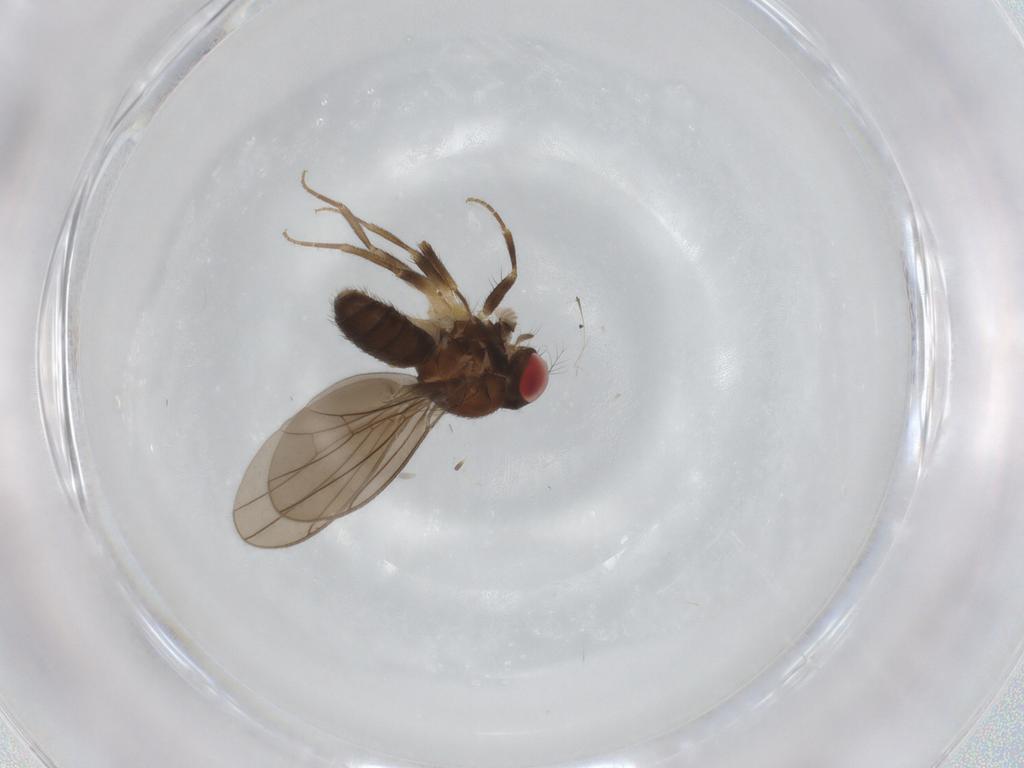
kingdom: Animalia
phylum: Arthropoda
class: Insecta
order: Diptera
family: Drosophilidae
